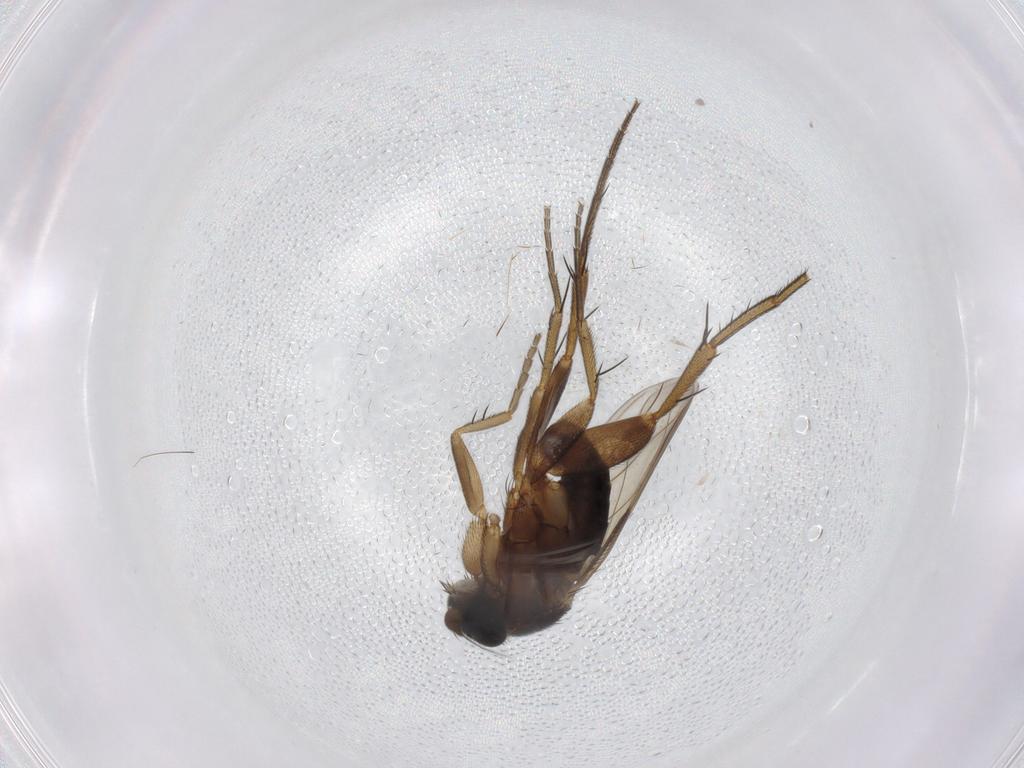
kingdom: Animalia
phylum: Arthropoda
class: Insecta
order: Diptera
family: Phoridae
